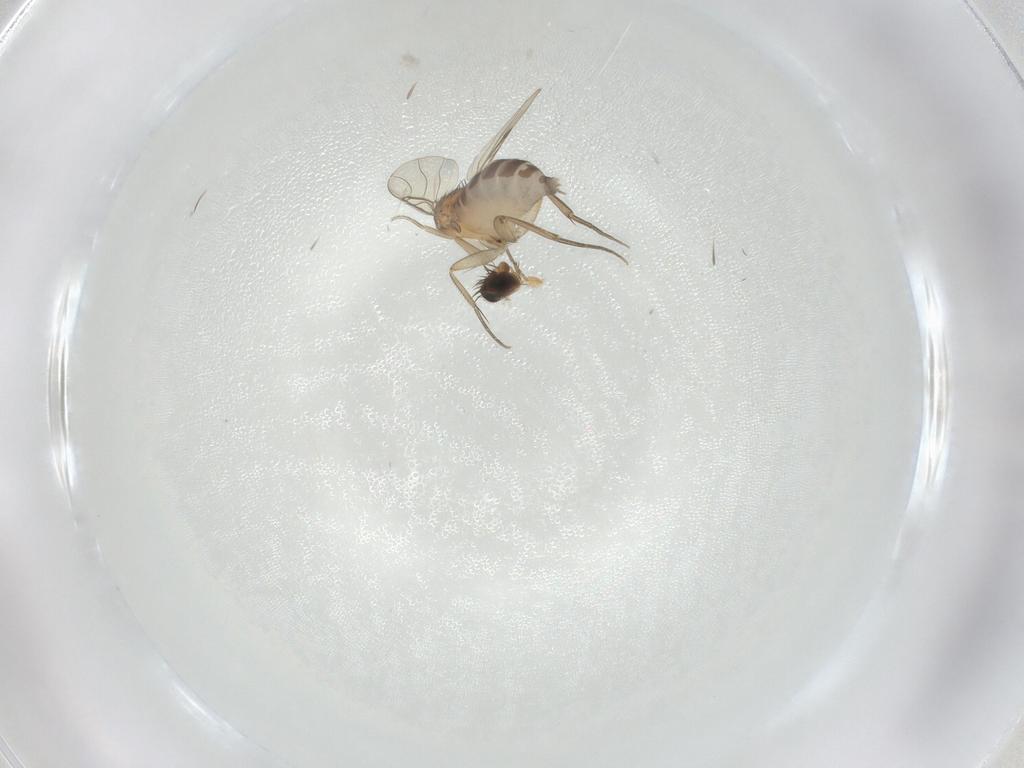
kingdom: Animalia
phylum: Arthropoda
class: Insecta
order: Diptera
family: Phoridae
